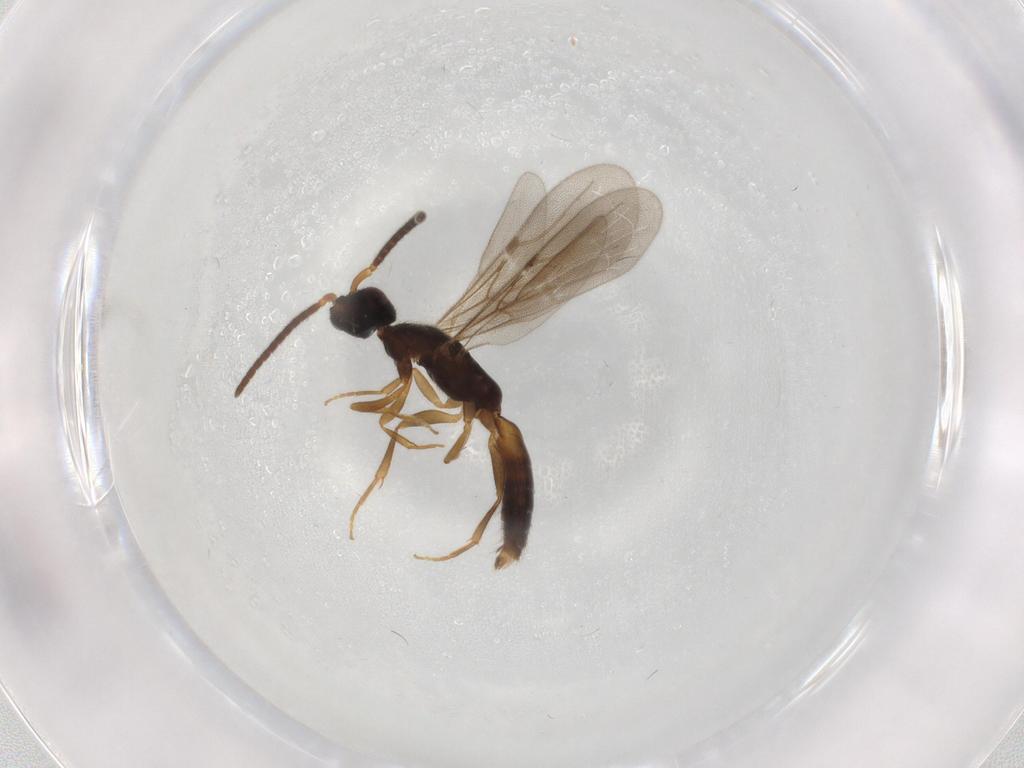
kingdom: Animalia
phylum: Arthropoda
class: Insecta
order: Hymenoptera
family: Bethylidae
